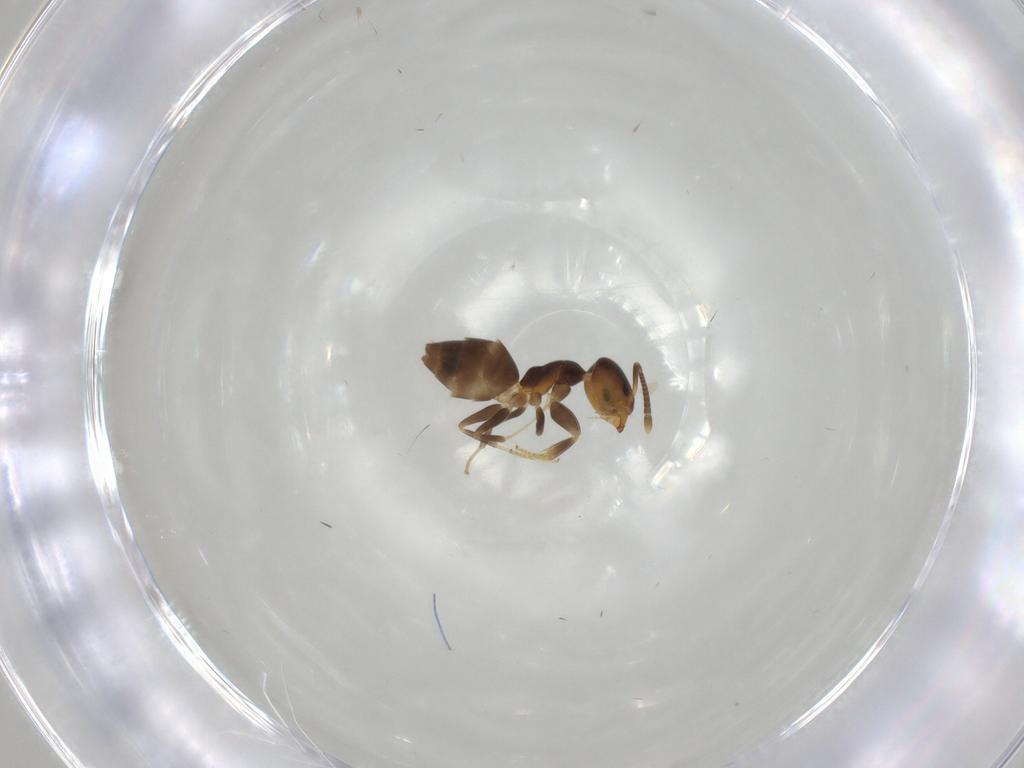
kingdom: Animalia
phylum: Arthropoda
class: Insecta
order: Hymenoptera
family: Formicidae
